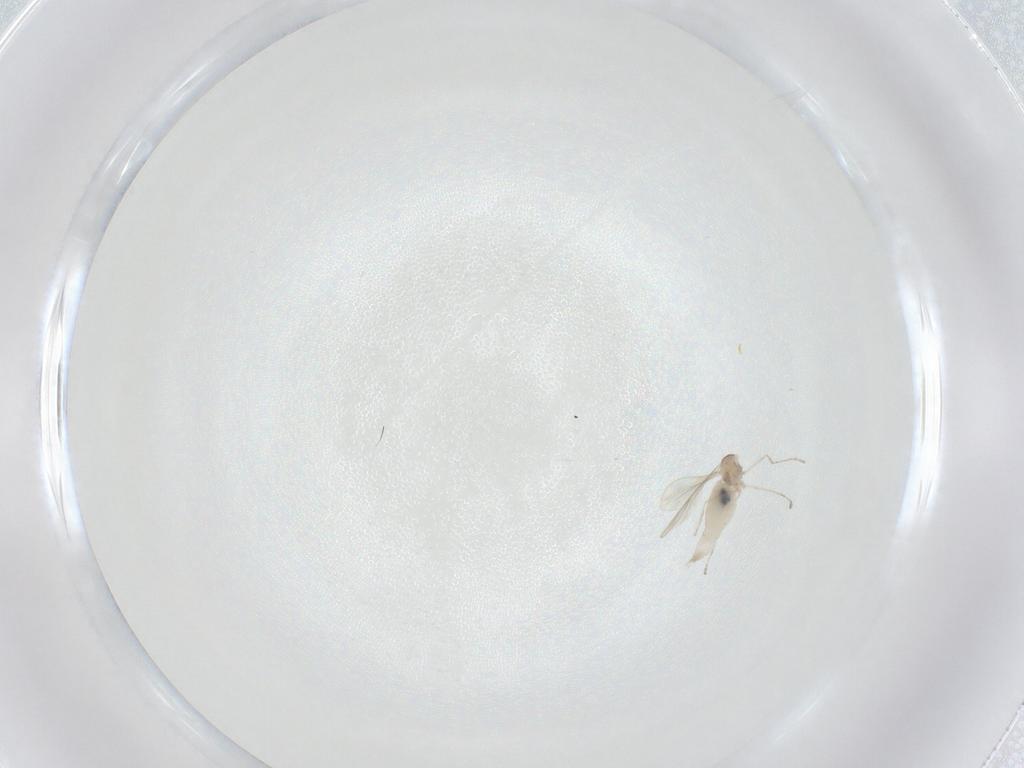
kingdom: Animalia
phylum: Arthropoda
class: Insecta
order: Diptera
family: Cecidomyiidae
